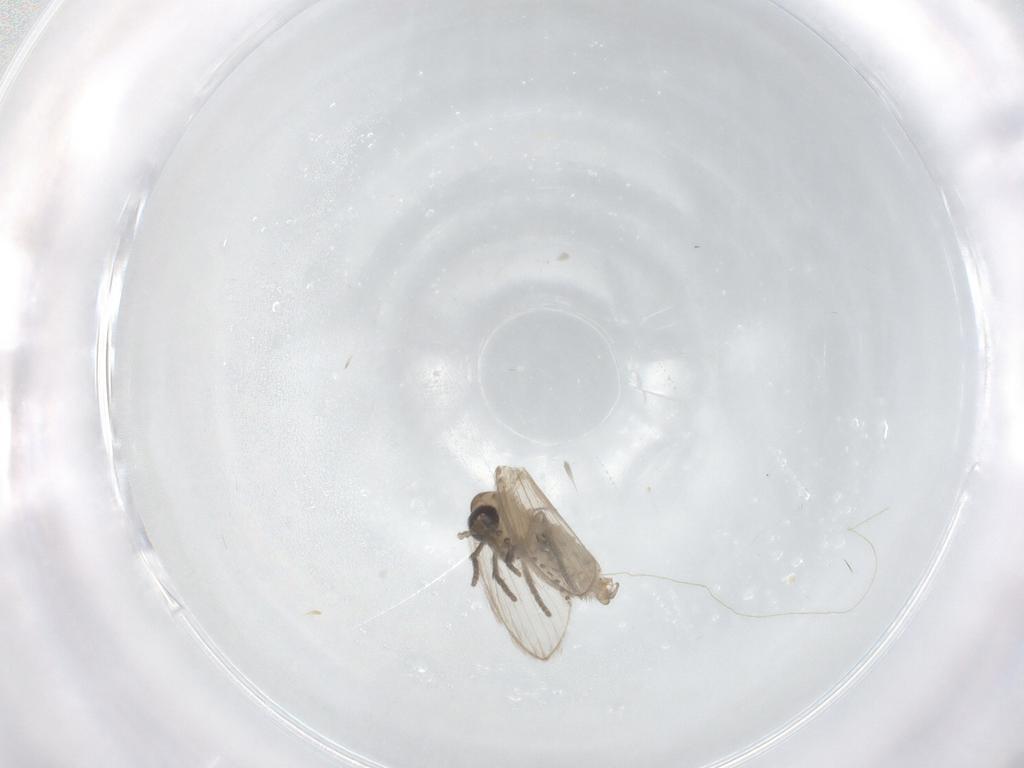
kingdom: Animalia
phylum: Arthropoda
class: Insecta
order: Diptera
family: Psychodidae
